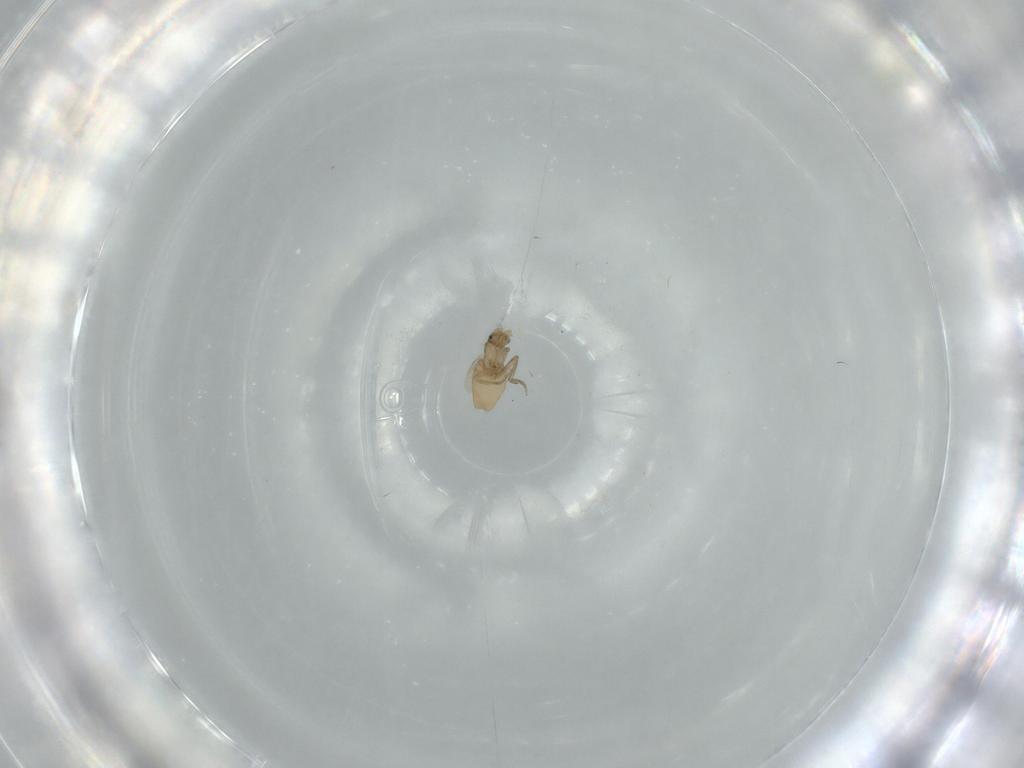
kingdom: Animalia
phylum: Arthropoda
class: Insecta
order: Diptera
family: Phoridae
